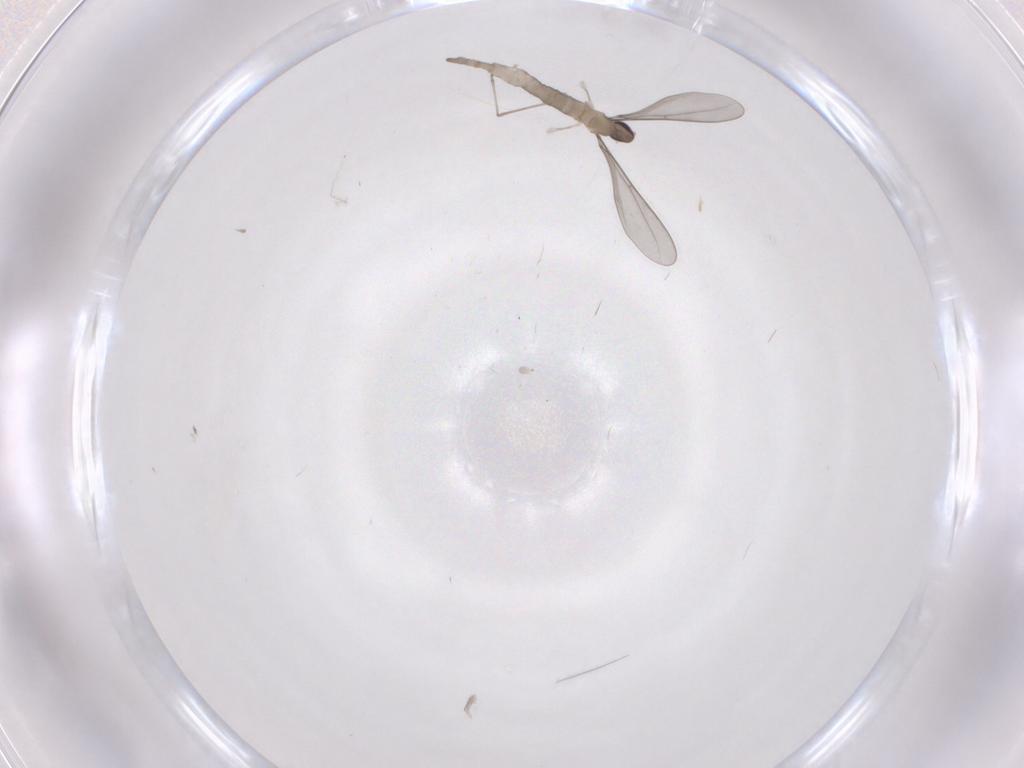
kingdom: Animalia
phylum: Arthropoda
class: Insecta
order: Diptera
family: Cecidomyiidae
